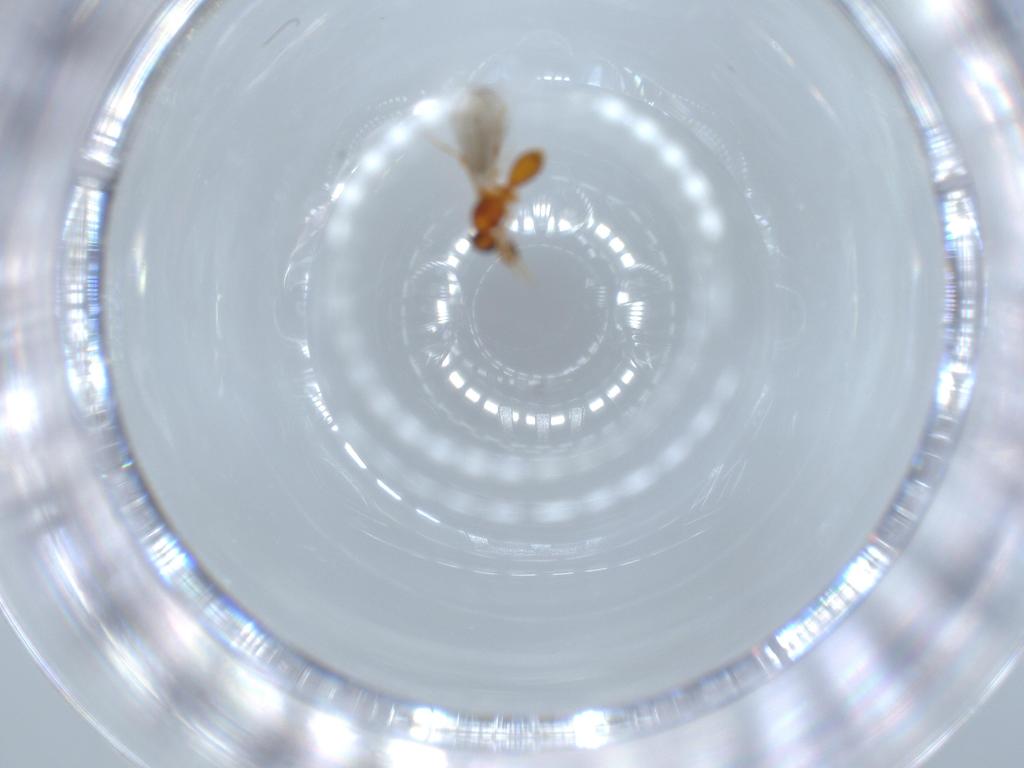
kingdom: Animalia
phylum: Arthropoda
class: Insecta
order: Hymenoptera
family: Platygastridae
